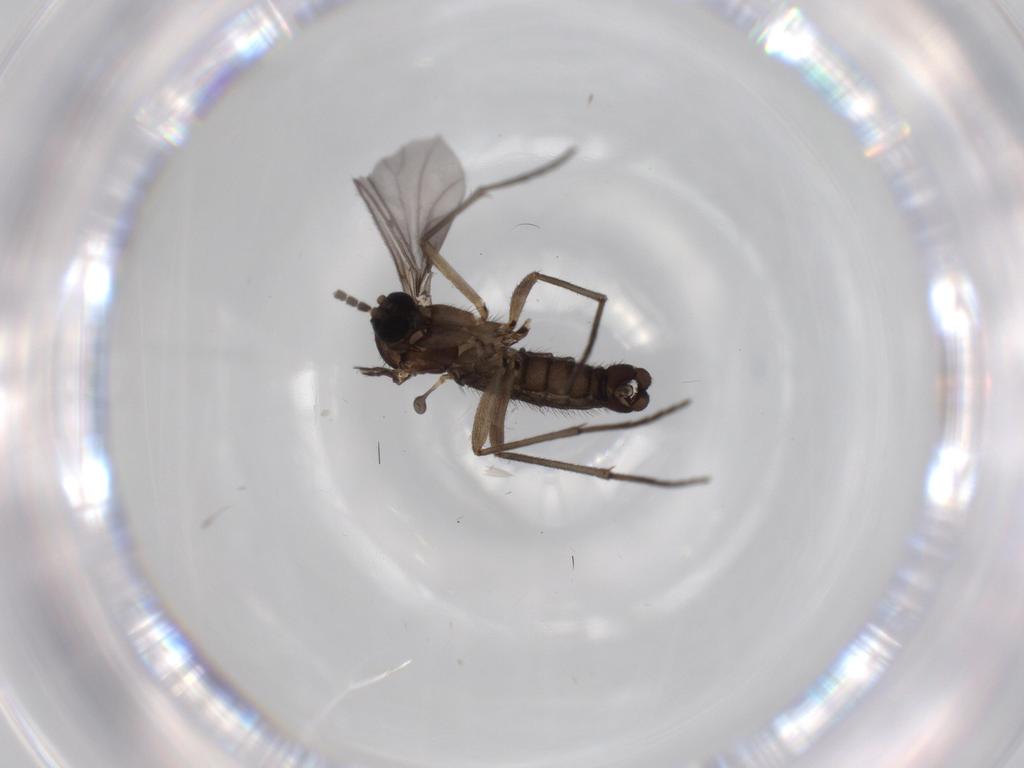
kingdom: Animalia
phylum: Arthropoda
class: Insecta
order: Diptera
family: Sciaridae
